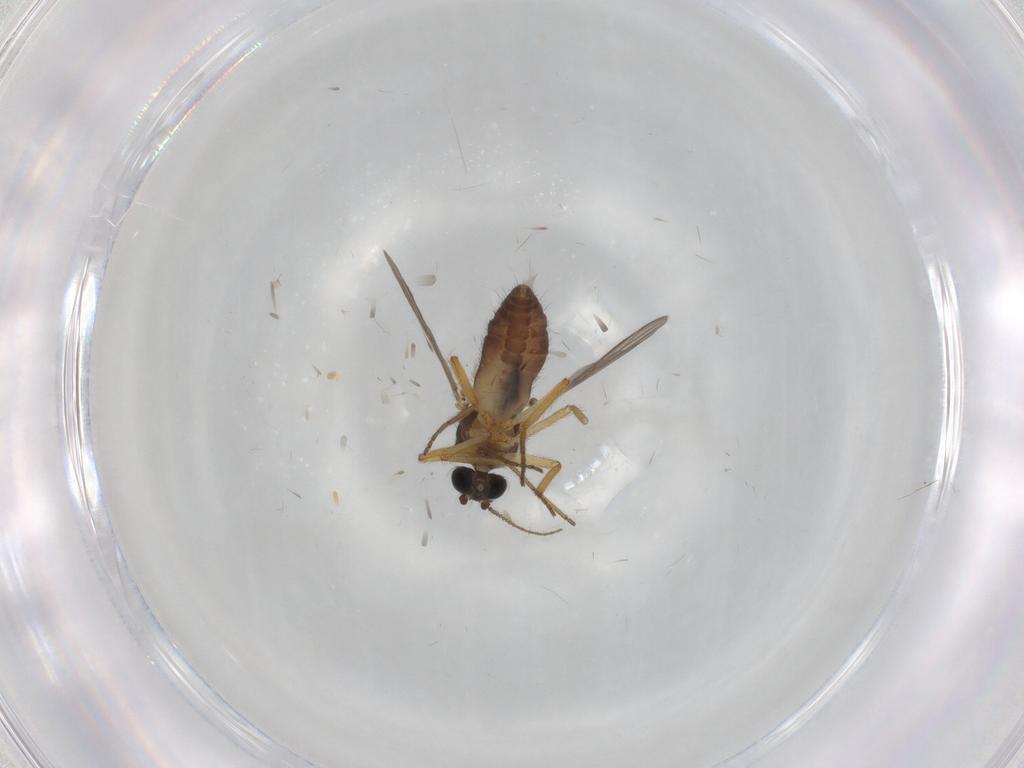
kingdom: Animalia
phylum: Arthropoda
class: Insecta
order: Diptera
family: Ceratopogonidae
